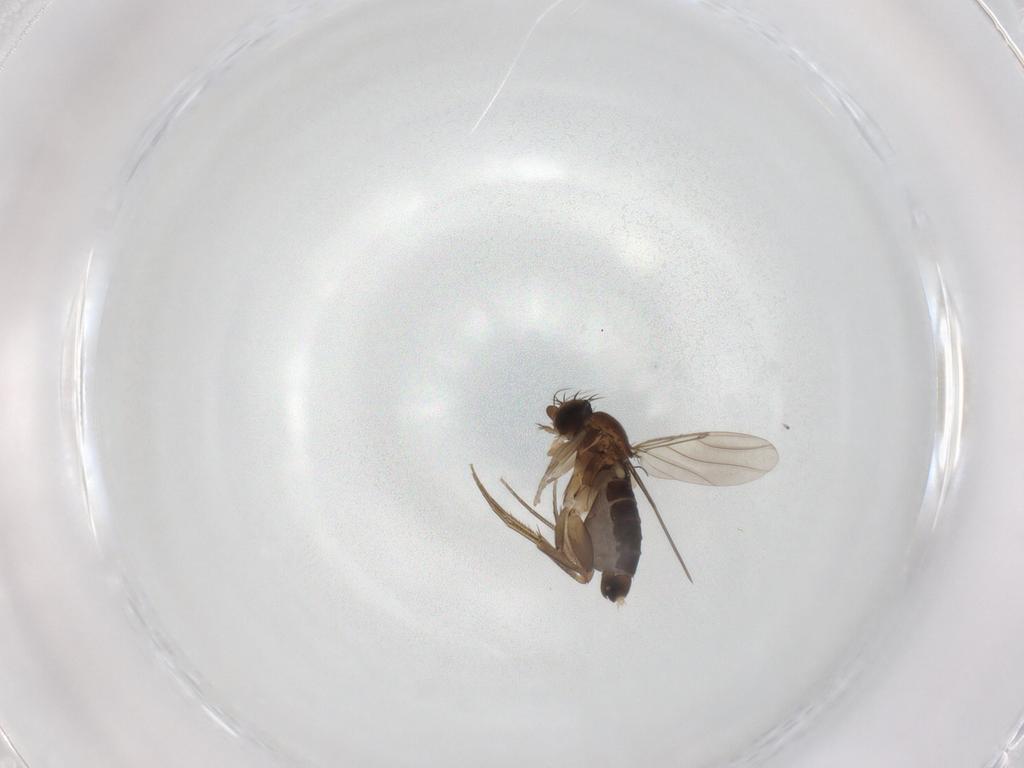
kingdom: Animalia
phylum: Arthropoda
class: Insecta
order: Diptera
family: Phoridae
